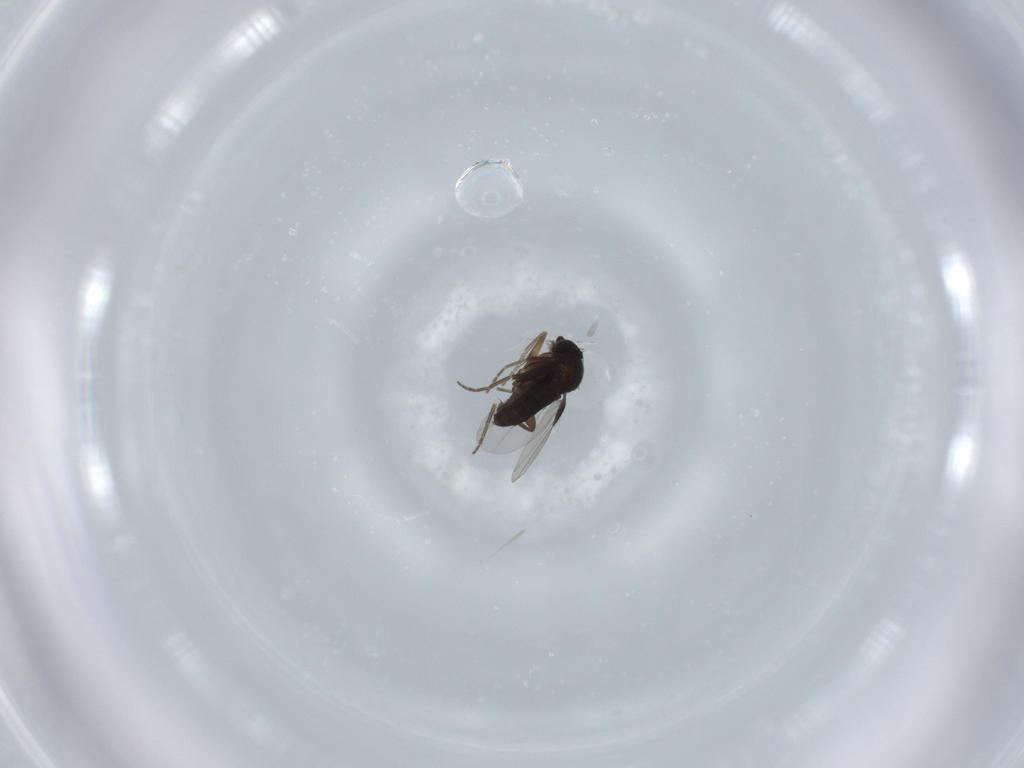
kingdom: Animalia
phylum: Arthropoda
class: Insecta
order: Diptera
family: Phoridae
